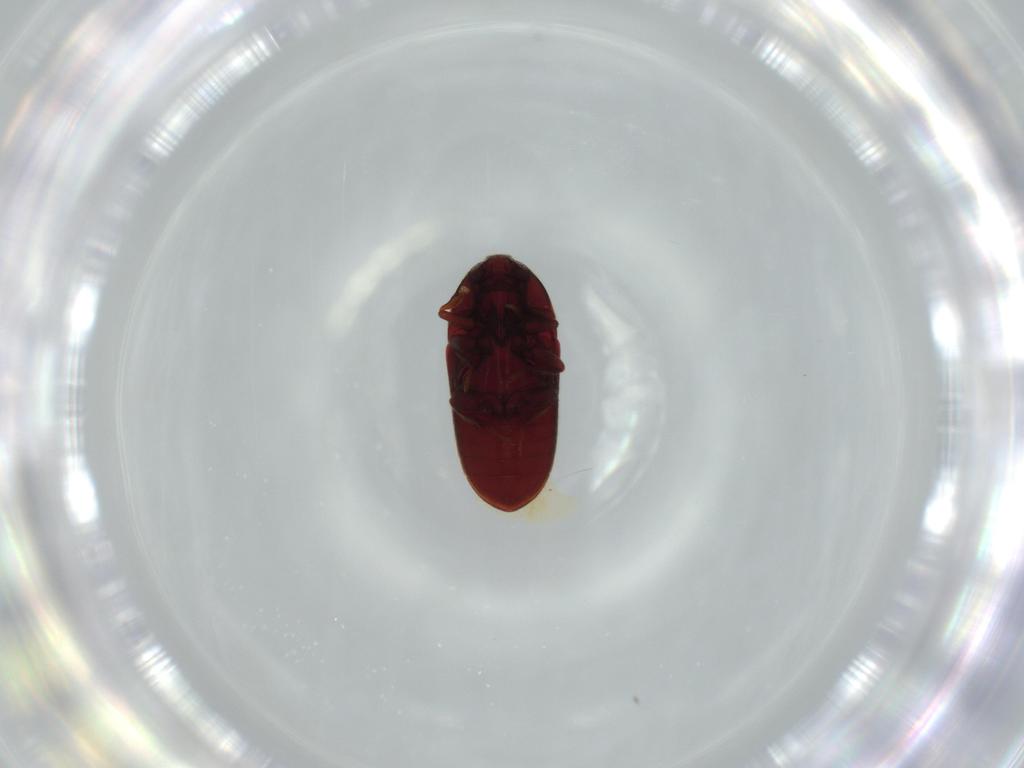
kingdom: Animalia
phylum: Arthropoda
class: Insecta
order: Coleoptera
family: Throscidae
